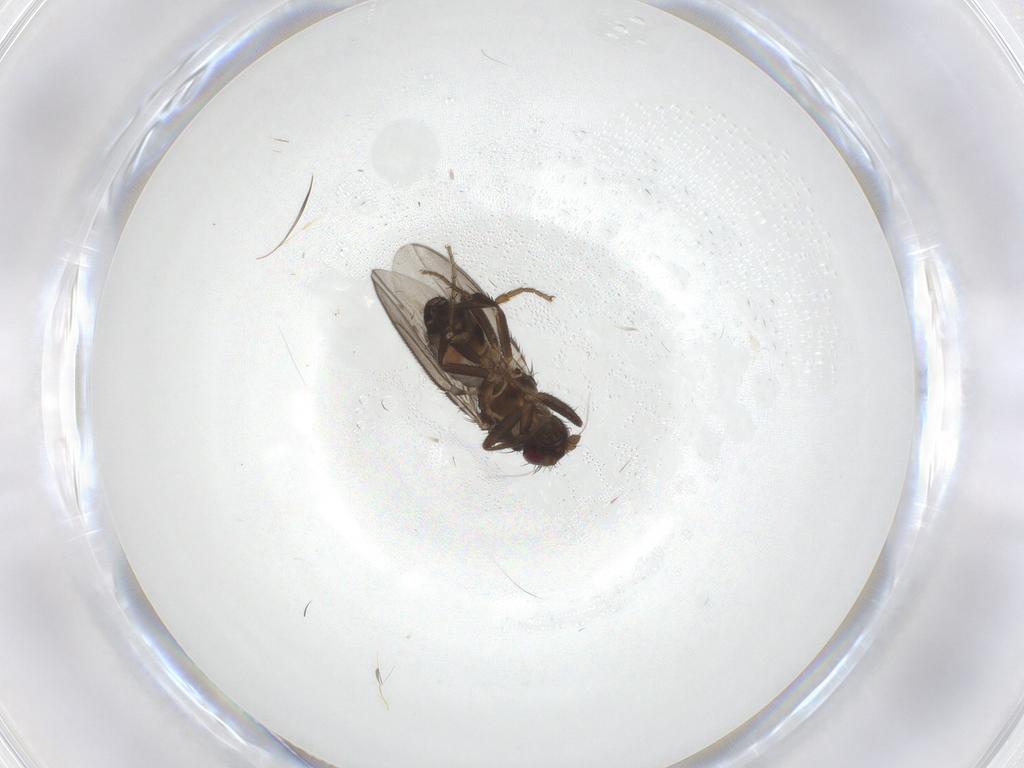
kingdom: Animalia
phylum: Arthropoda
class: Insecta
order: Diptera
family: Sphaeroceridae
